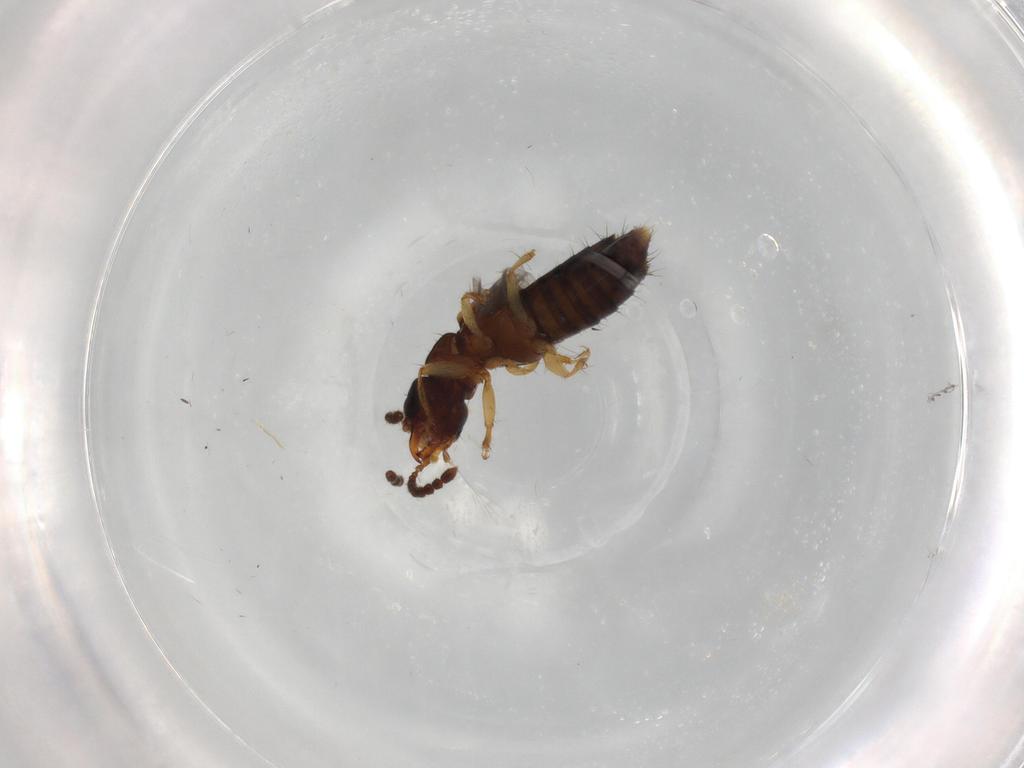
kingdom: Animalia
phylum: Arthropoda
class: Insecta
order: Coleoptera
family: Staphylinidae
